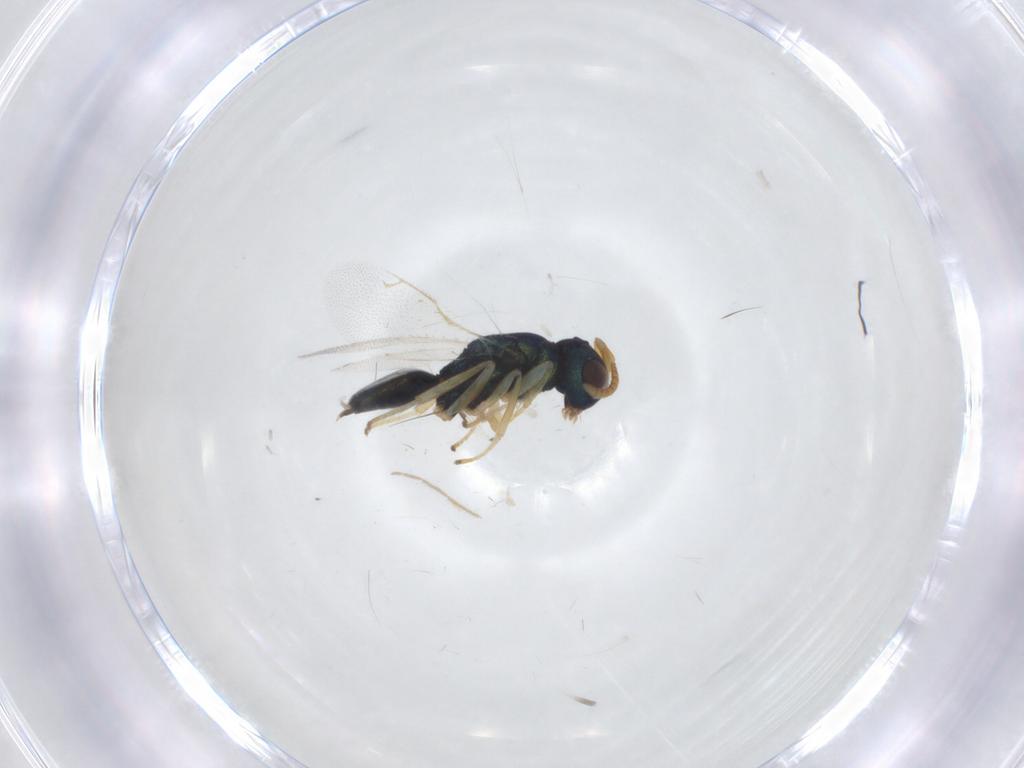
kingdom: Animalia
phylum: Arthropoda
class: Insecta
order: Hymenoptera
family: Pteromalidae
